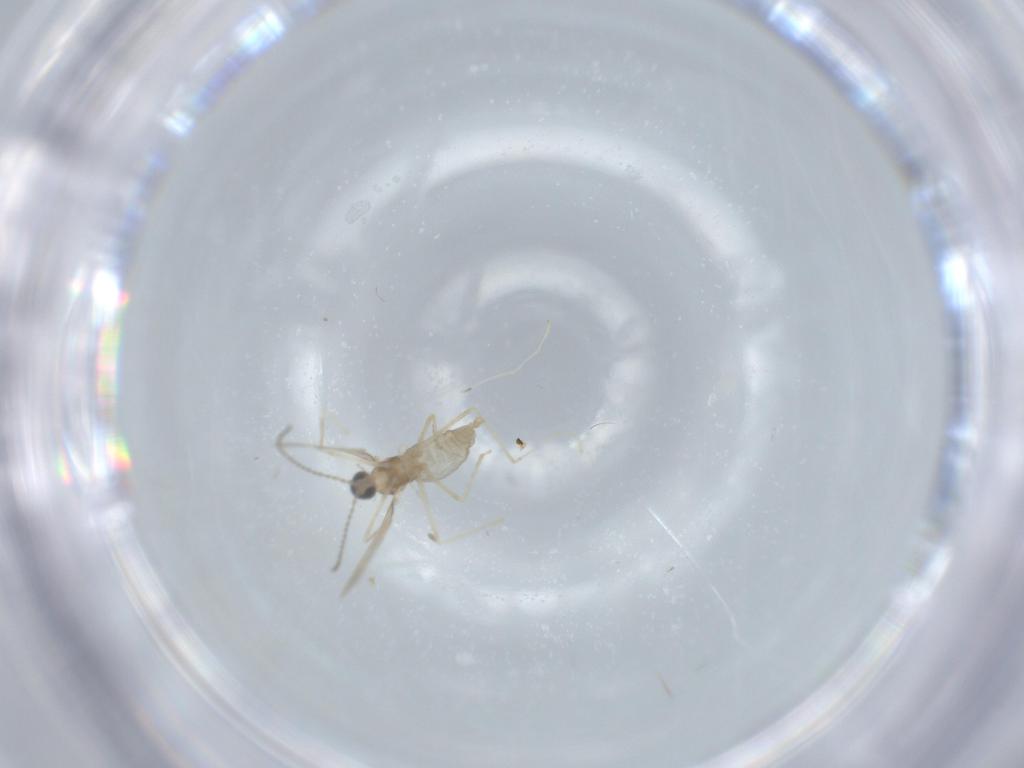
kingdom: Animalia
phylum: Arthropoda
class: Insecta
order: Diptera
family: Cecidomyiidae
